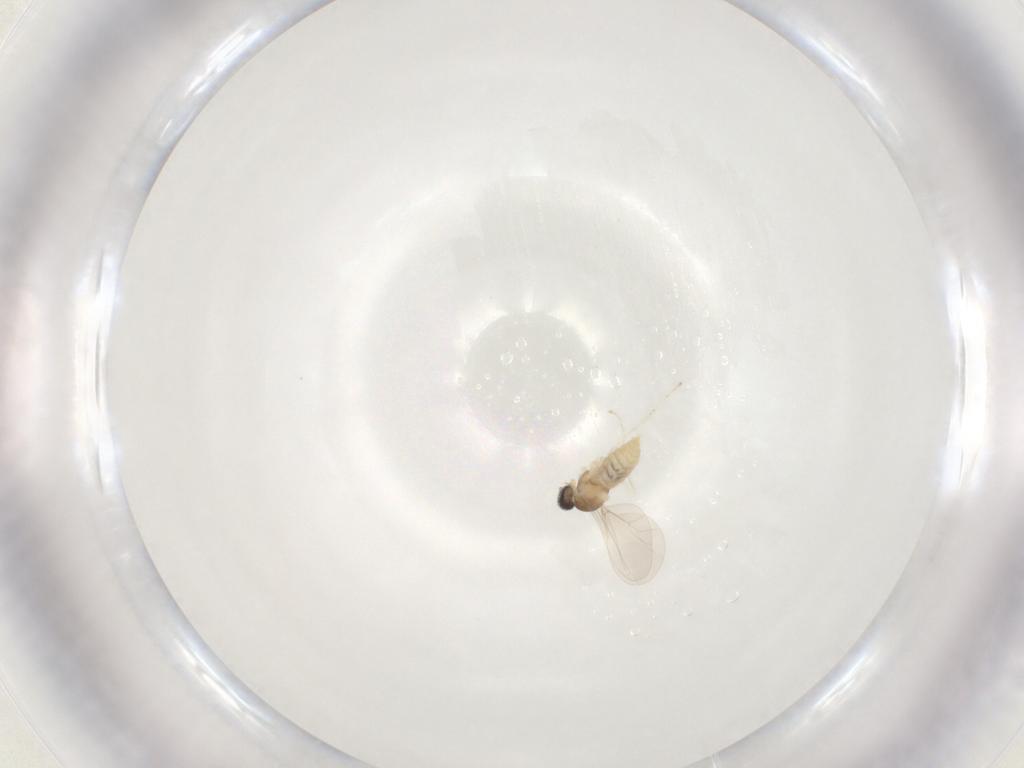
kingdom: Animalia
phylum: Arthropoda
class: Insecta
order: Diptera
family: Cecidomyiidae
